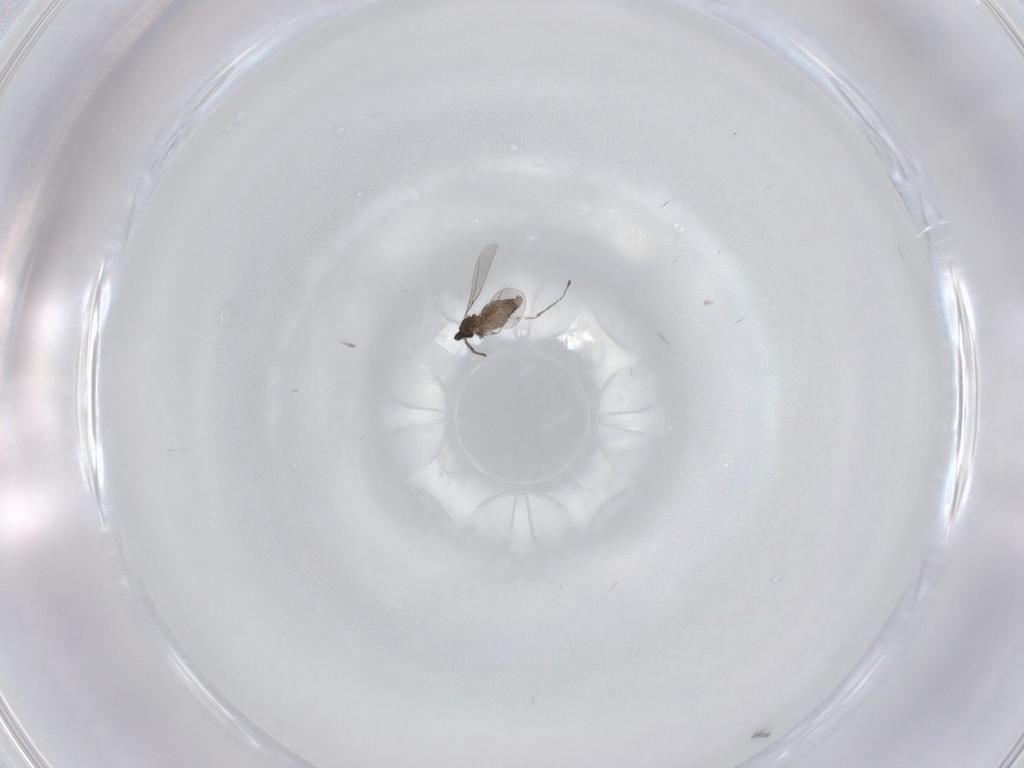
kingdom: Animalia
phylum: Arthropoda
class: Insecta
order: Diptera
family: Cecidomyiidae
